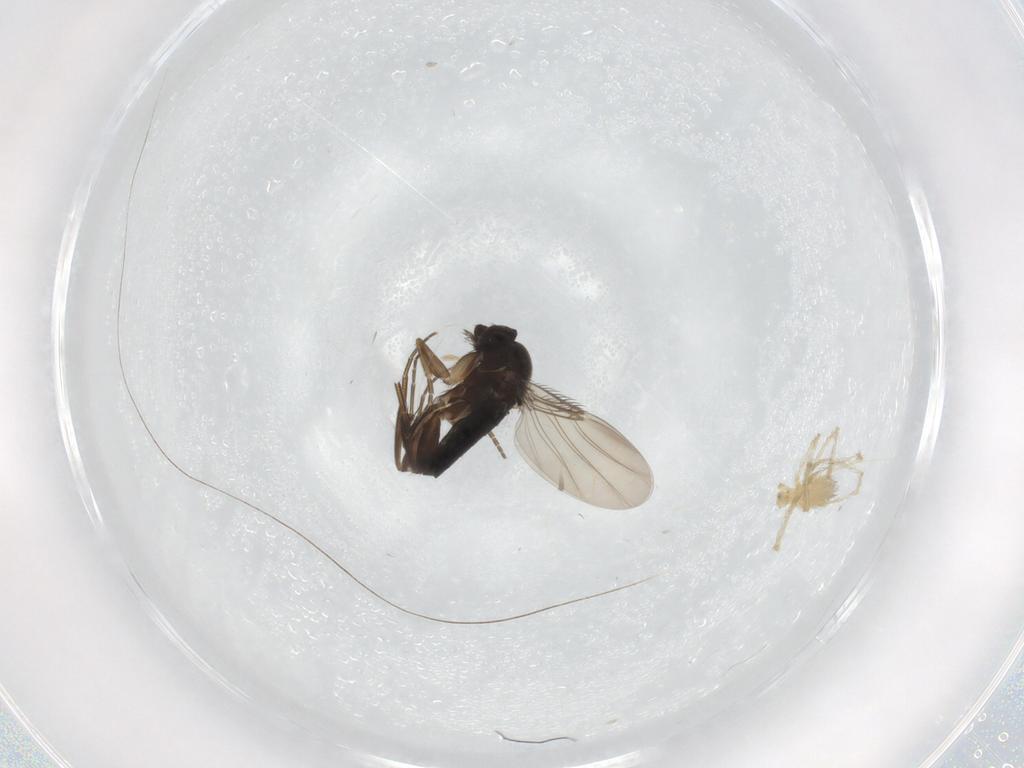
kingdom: Animalia
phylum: Arthropoda
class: Insecta
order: Diptera
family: Phoridae
